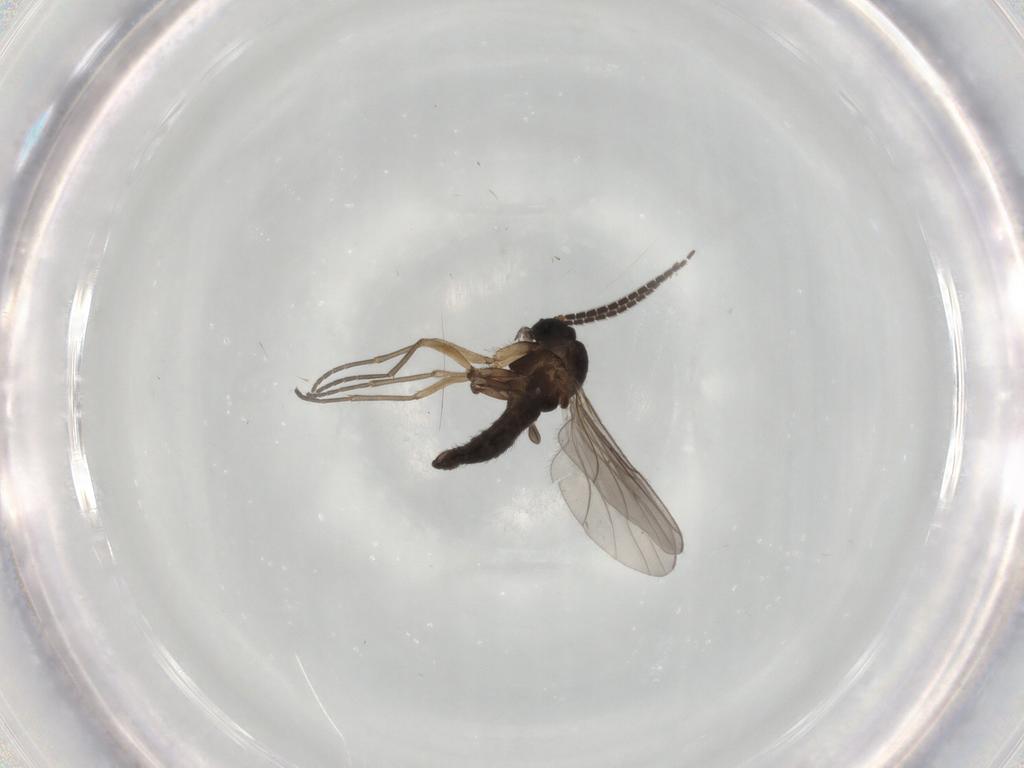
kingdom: Animalia
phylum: Arthropoda
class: Insecta
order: Diptera
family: Sciaridae
